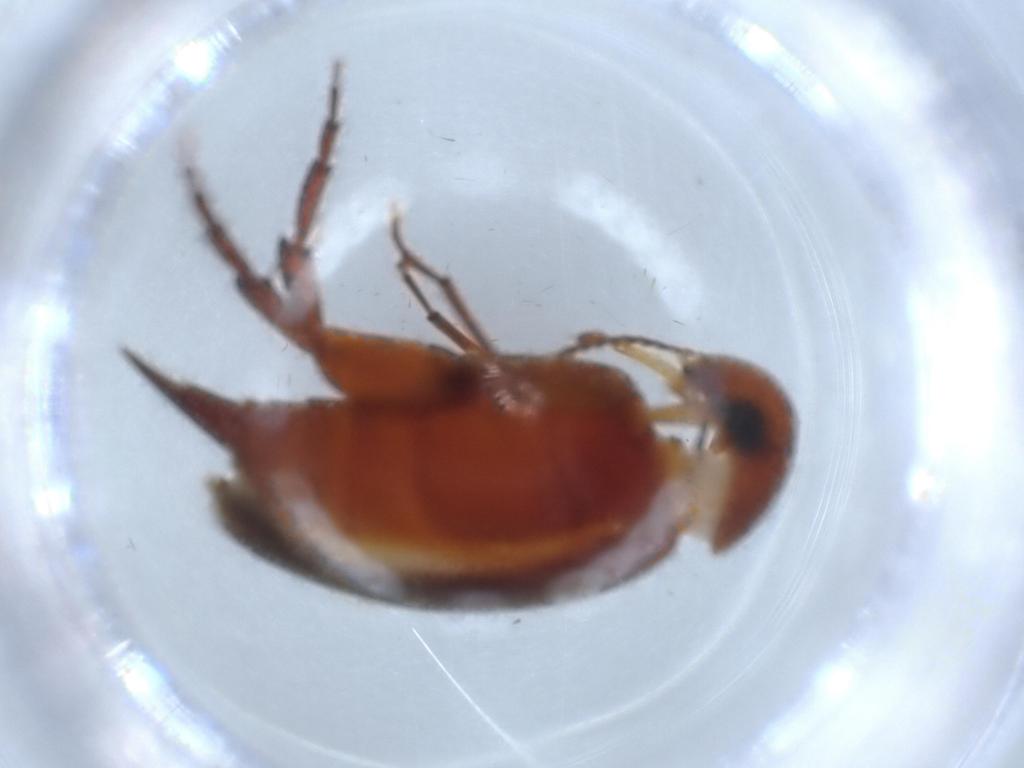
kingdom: Animalia
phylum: Arthropoda
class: Insecta
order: Coleoptera
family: Mordellidae
